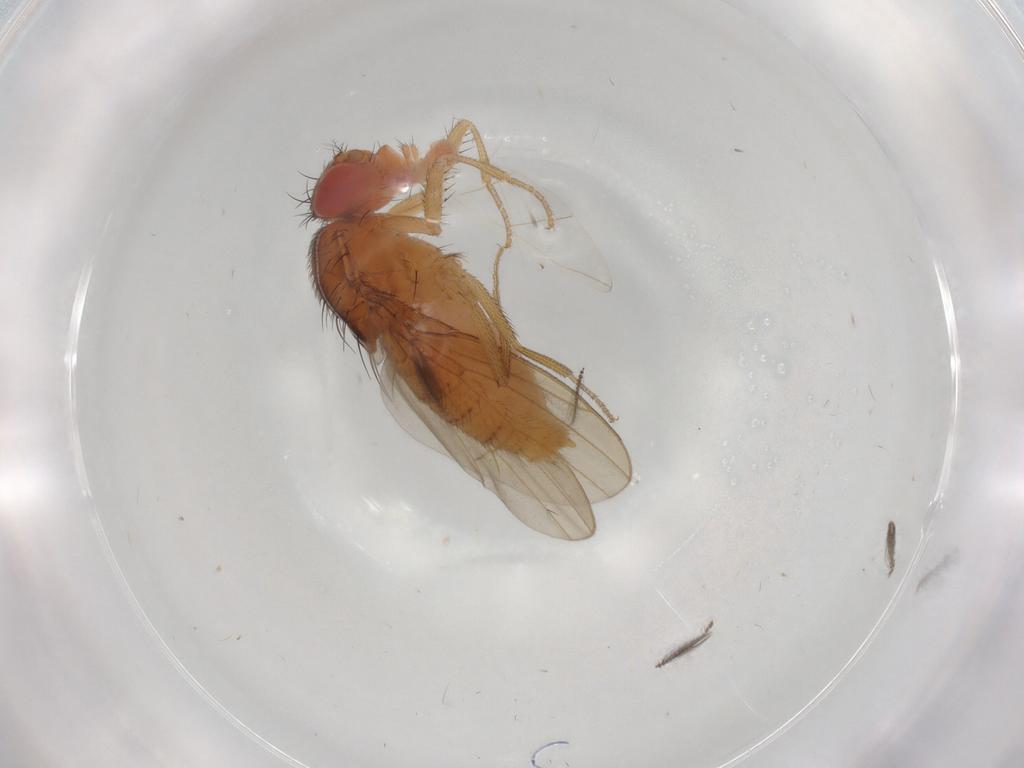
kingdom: Animalia
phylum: Arthropoda
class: Insecta
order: Diptera
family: Drosophilidae
